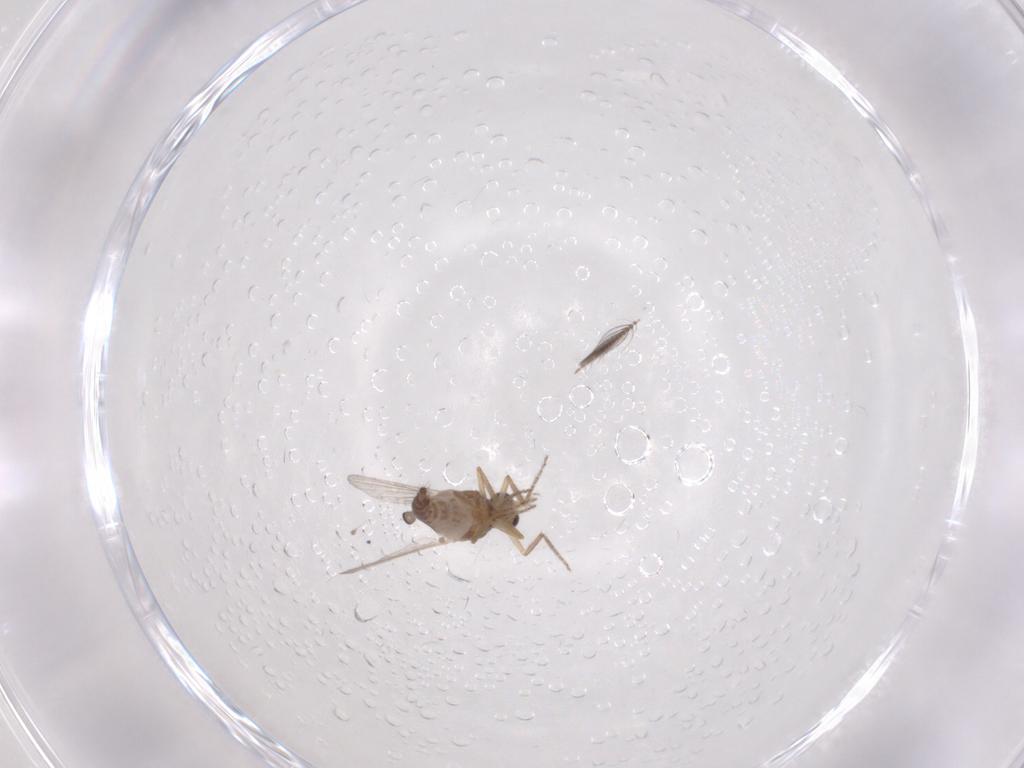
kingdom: Animalia
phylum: Arthropoda
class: Insecta
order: Diptera
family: Ceratopogonidae
